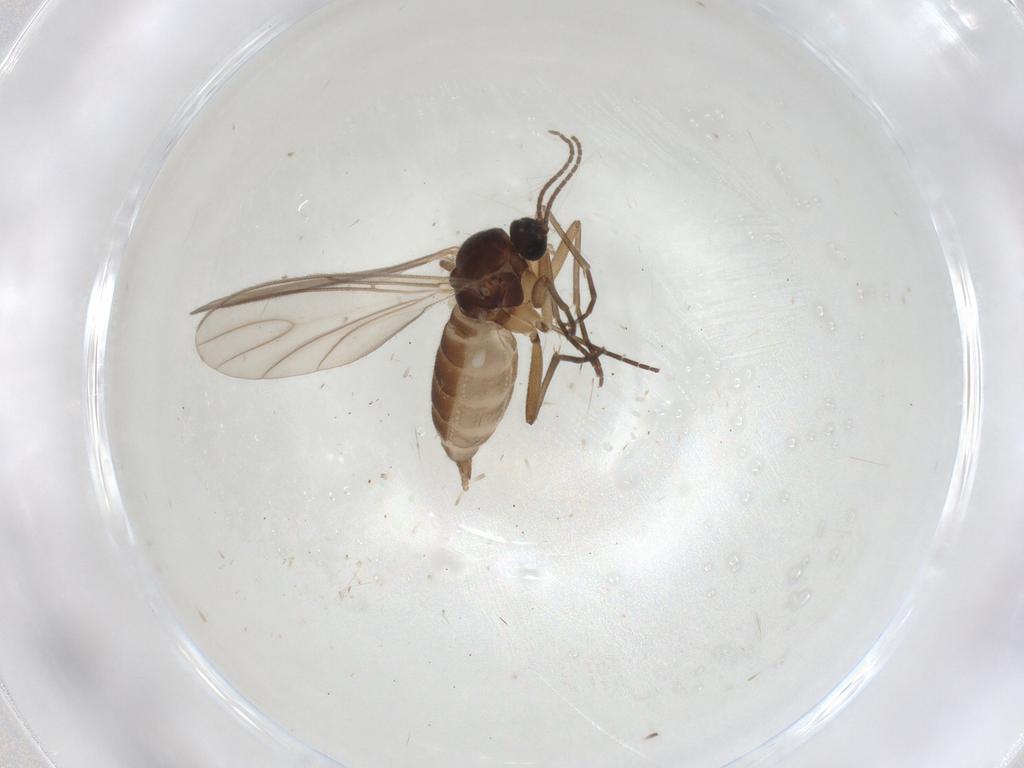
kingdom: Animalia
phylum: Arthropoda
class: Insecta
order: Diptera
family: Sciaridae
